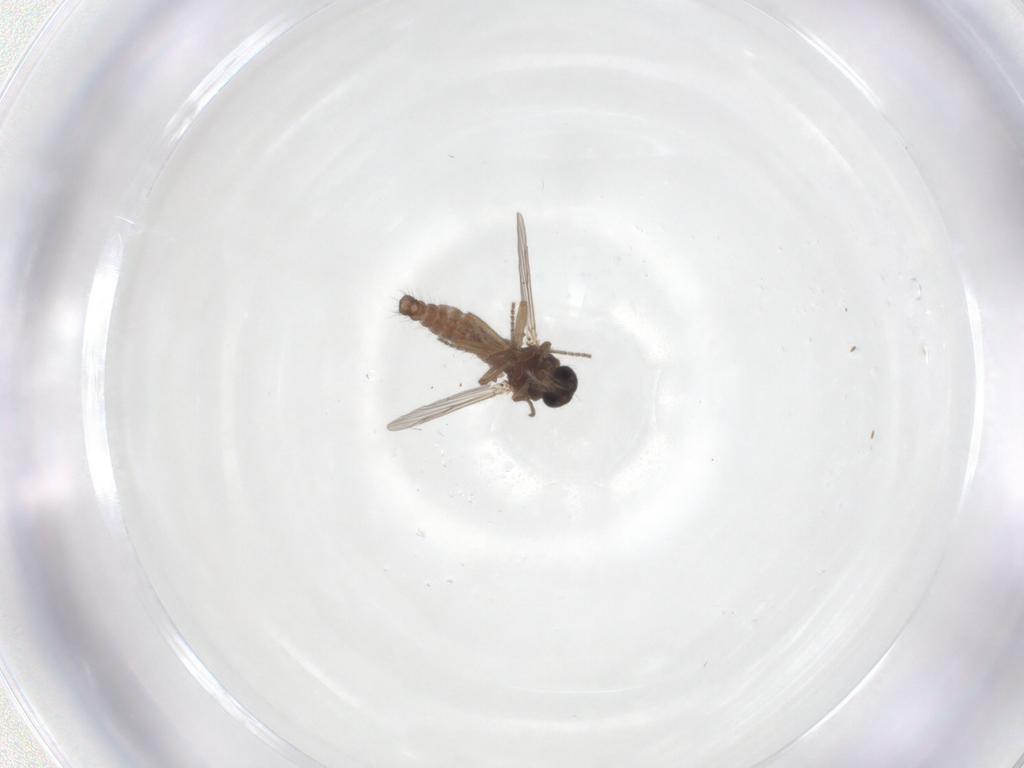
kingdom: Animalia
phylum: Arthropoda
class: Insecta
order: Diptera
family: Ceratopogonidae
